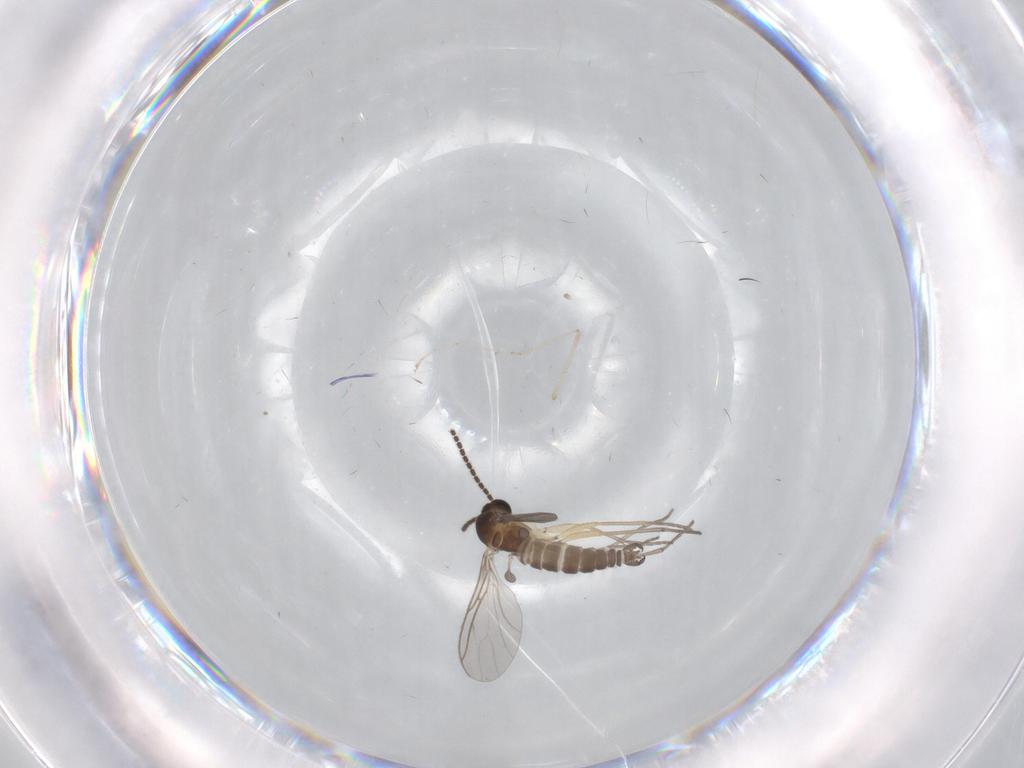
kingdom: Animalia
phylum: Arthropoda
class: Insecta
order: Diptera
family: Cecidomyiidae
